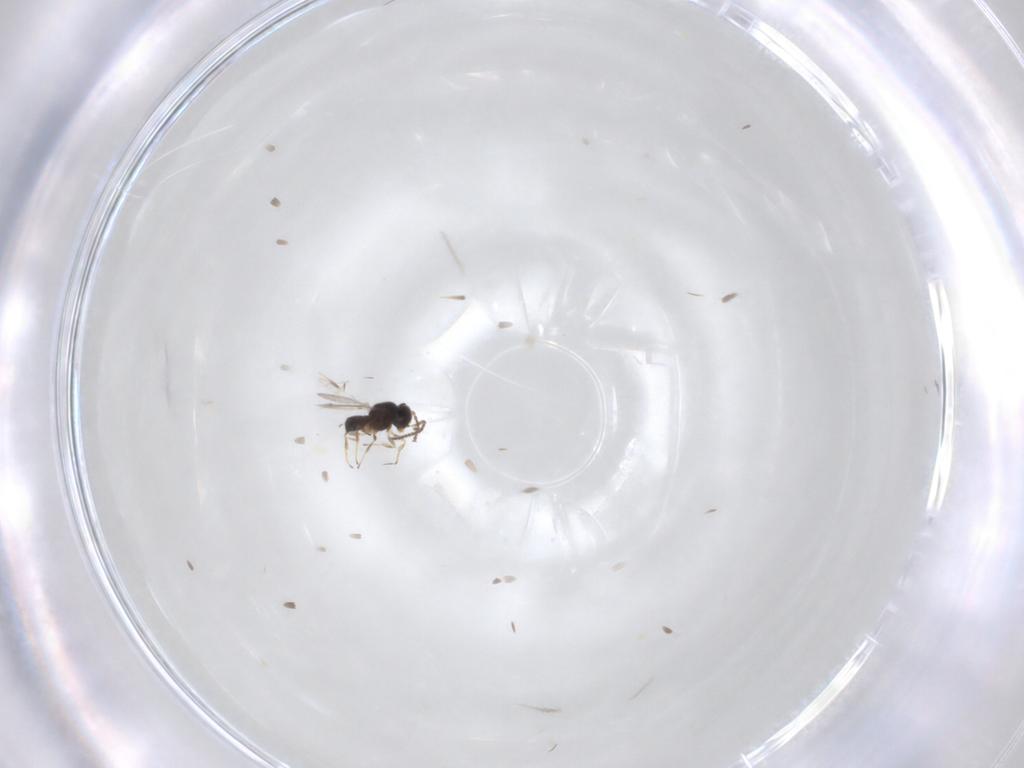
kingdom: Animalia
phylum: Arthropoda
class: Insecta
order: Hymenoptera
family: Scelionidae
